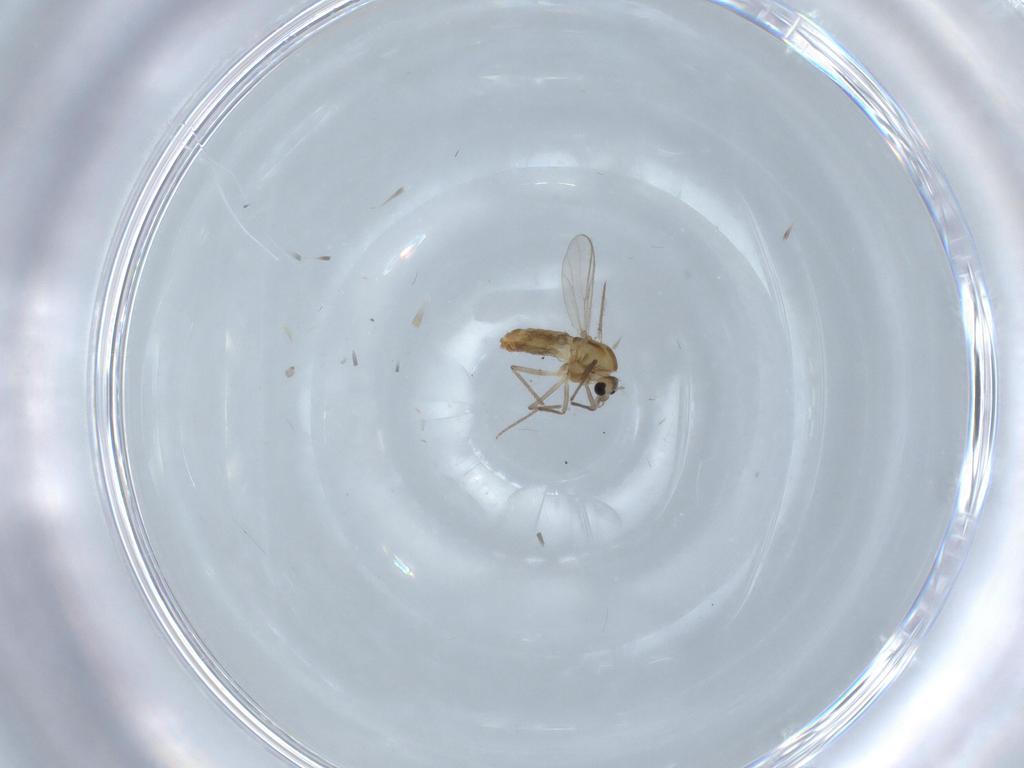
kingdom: Animalia
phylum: Arthropoda
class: Insecta
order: Diptera
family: Chironomidae
